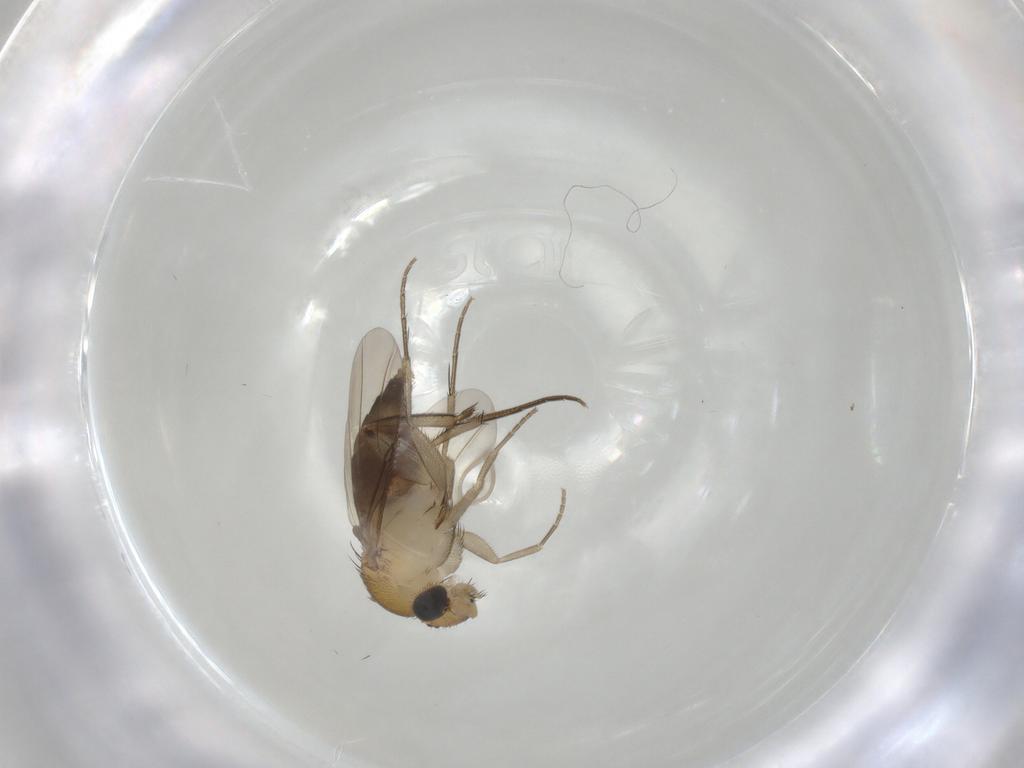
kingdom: Animalia
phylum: Arthropoda
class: Insecta
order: Diptera
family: Phoridae
